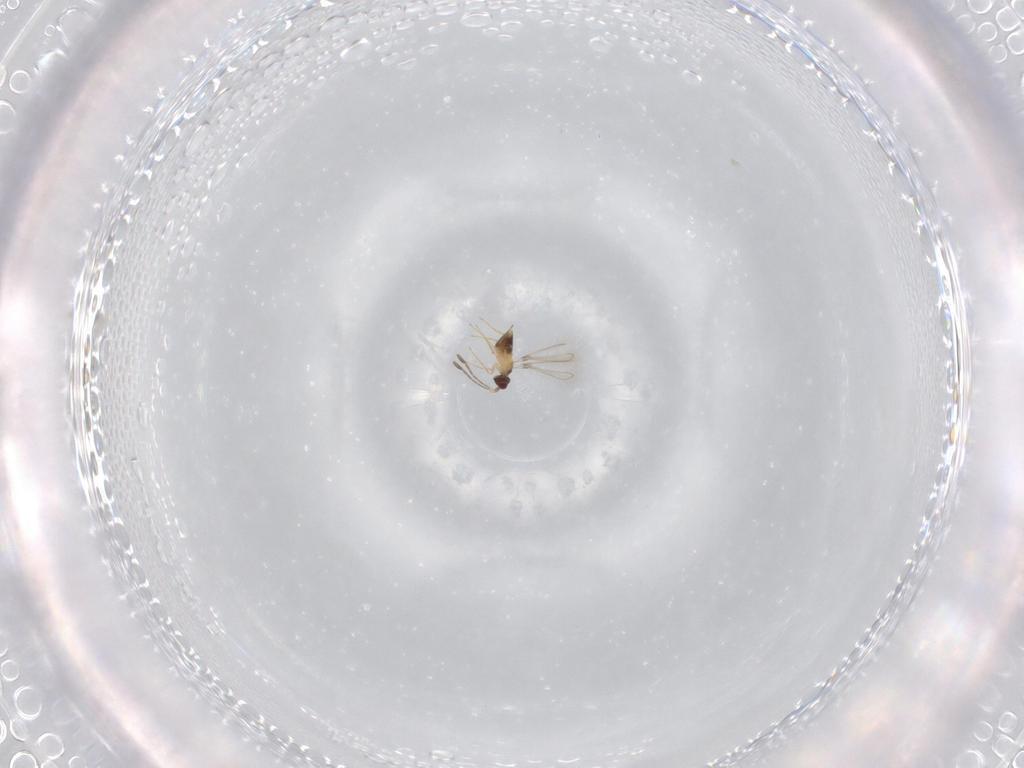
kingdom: Animalia
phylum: Arthropoda
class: Insecta
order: Hymenoptera
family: Mymaridae
